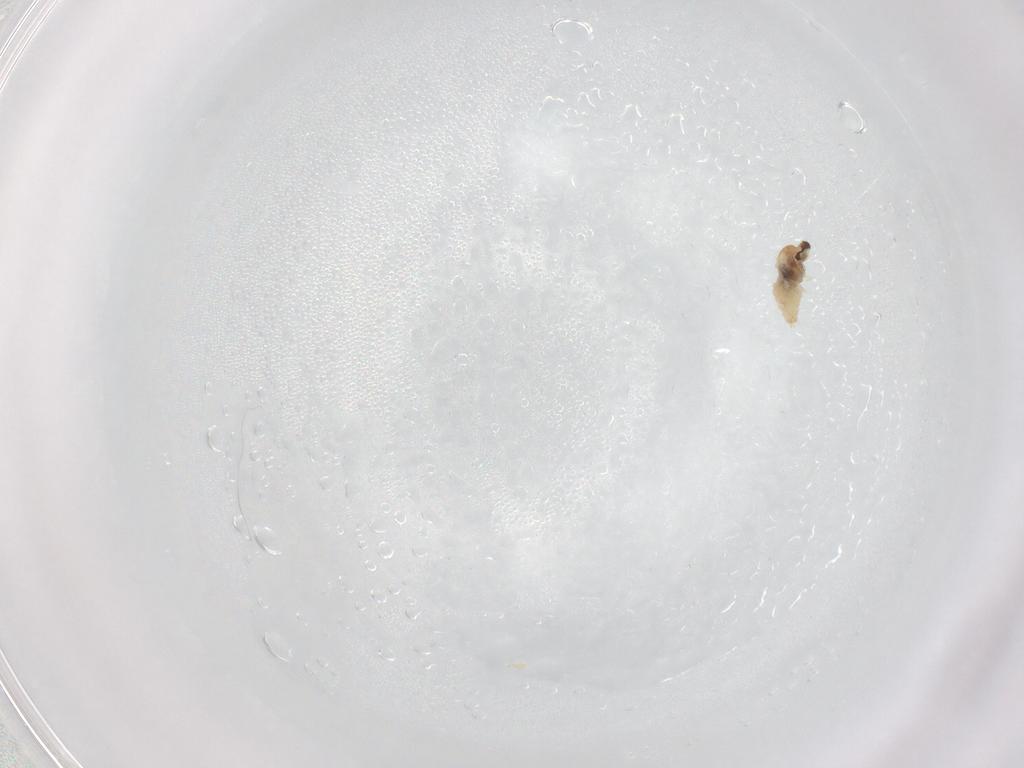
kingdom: Animalia
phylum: Arthropoda
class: Insecta
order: Diptera
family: Cecidomyiidae
